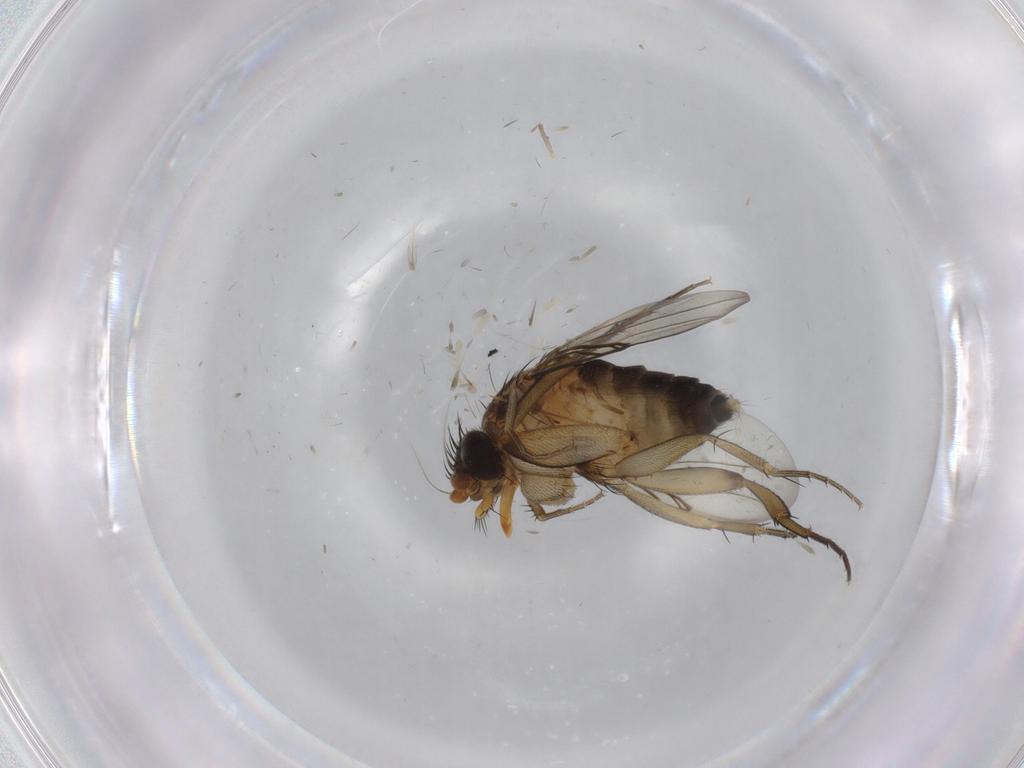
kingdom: Animalia
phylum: Arthropoda
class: Insecta
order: Diptera
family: Phoridae
